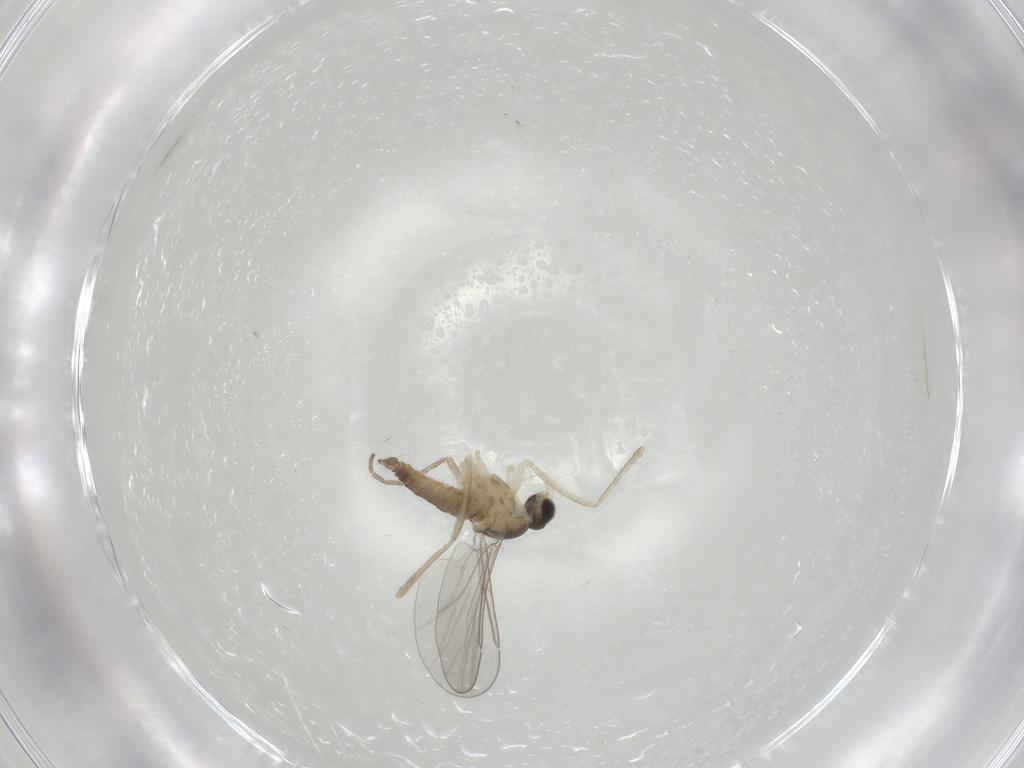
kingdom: Animalia
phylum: Arthropoda
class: Insecta
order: Diptera
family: Cecidomyiidae
